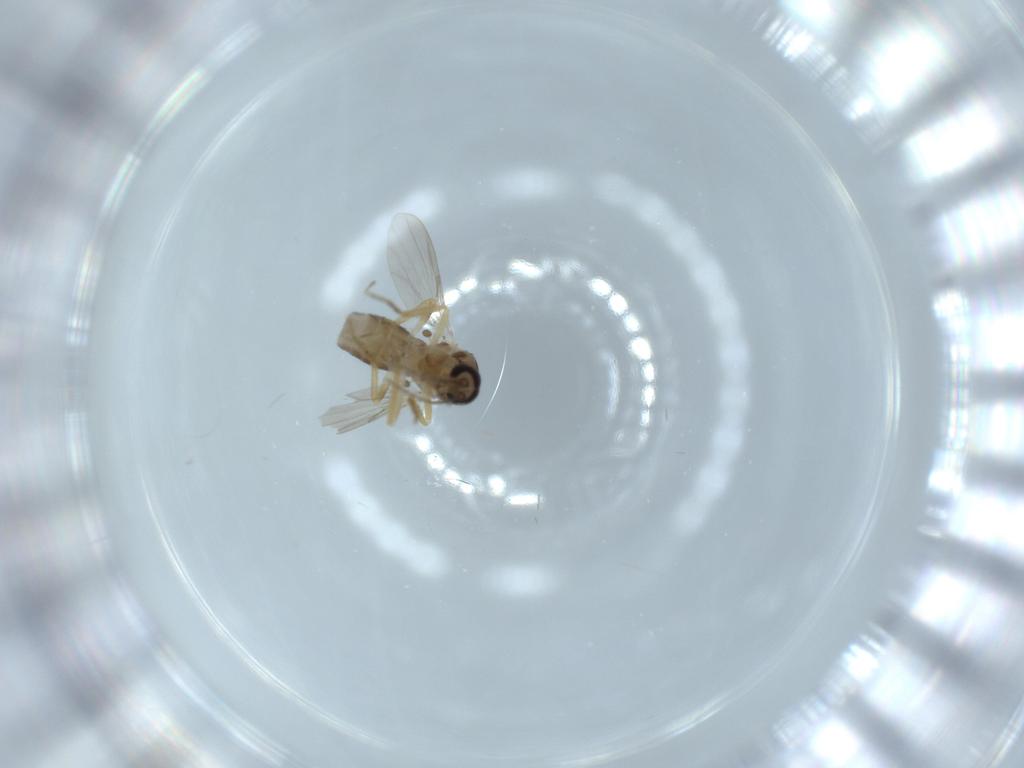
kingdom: Animalia
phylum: Arthropoda
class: Insecta
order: Diptera
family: Ceratopogonidae
